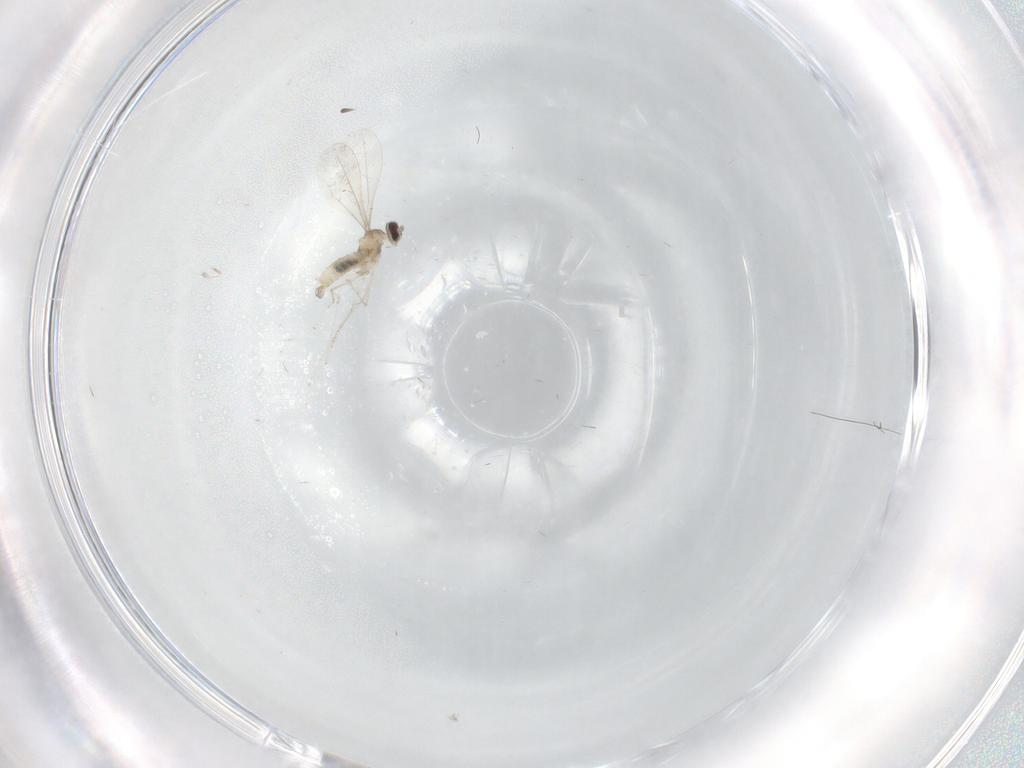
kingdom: Animalia
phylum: Arthropoda
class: Insecta
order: Diptera
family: Cecidomyiidae
